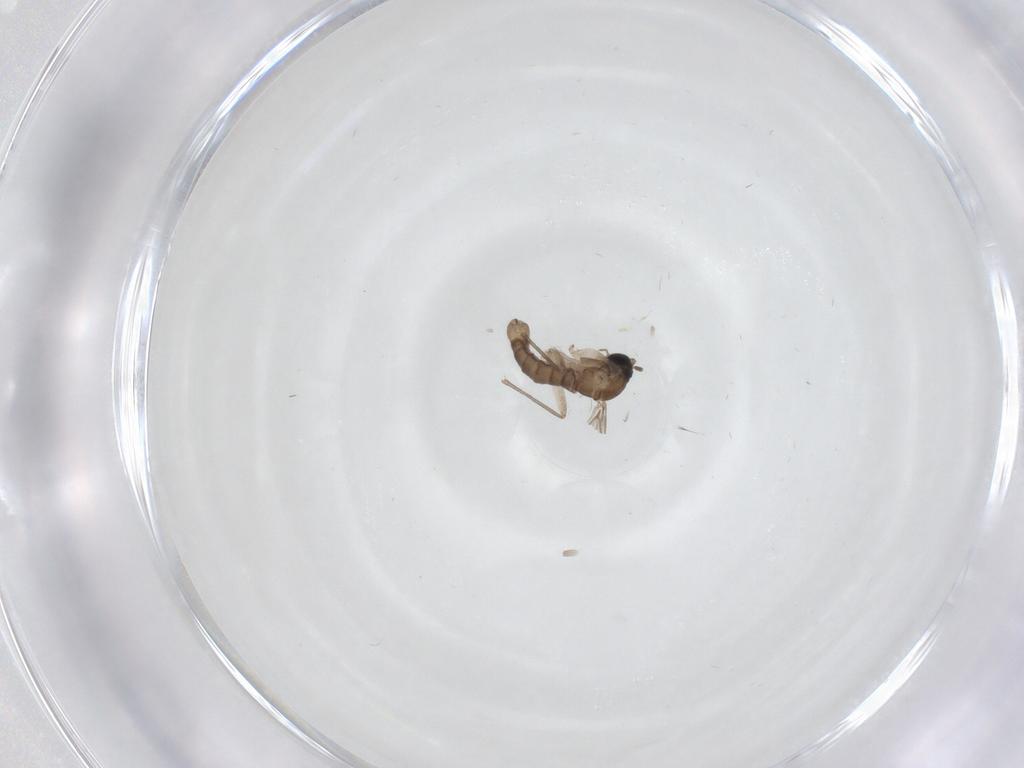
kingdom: Animalia
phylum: Arthropoda
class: Insecta
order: Diptera
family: Sciaridae
